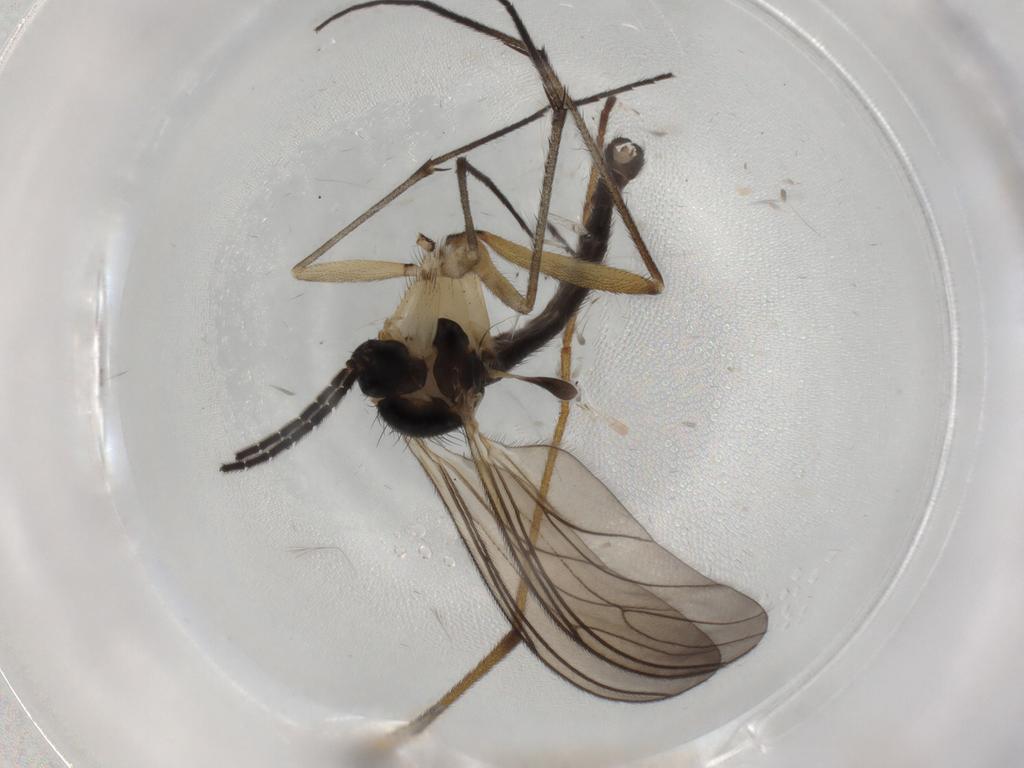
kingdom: Animalia
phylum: Arthropoda
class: Insecta
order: Diptera
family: Sciaridae
